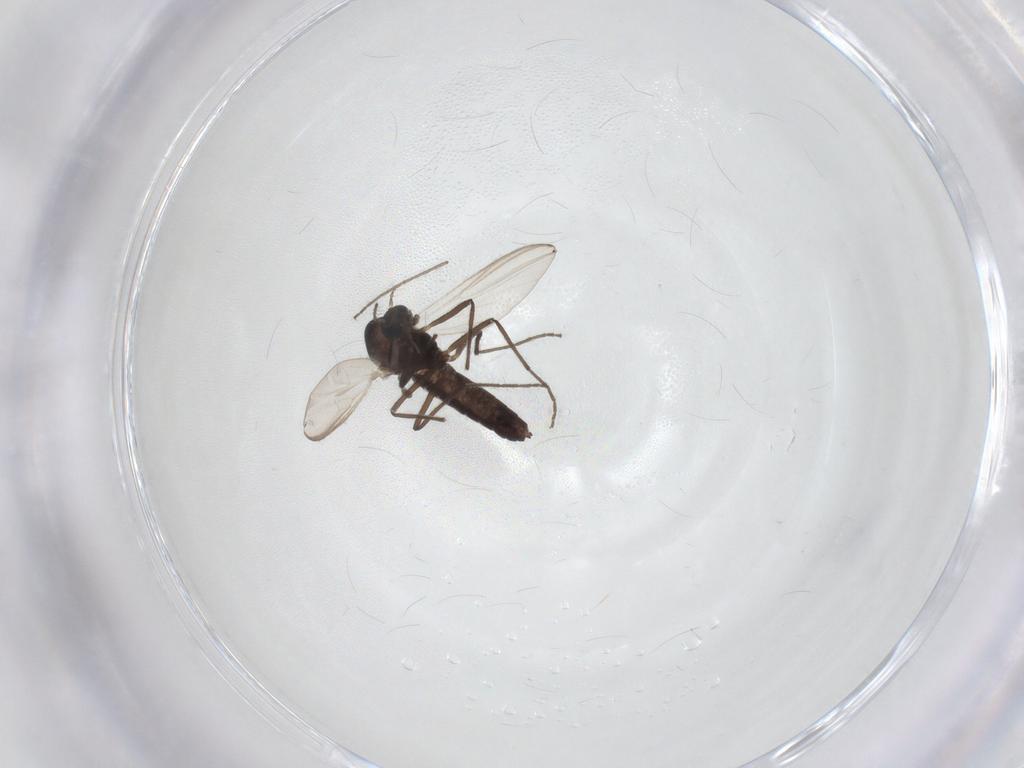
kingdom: Animalia
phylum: Arthropoda
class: Insecta
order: Diptera
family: Chironomidae
